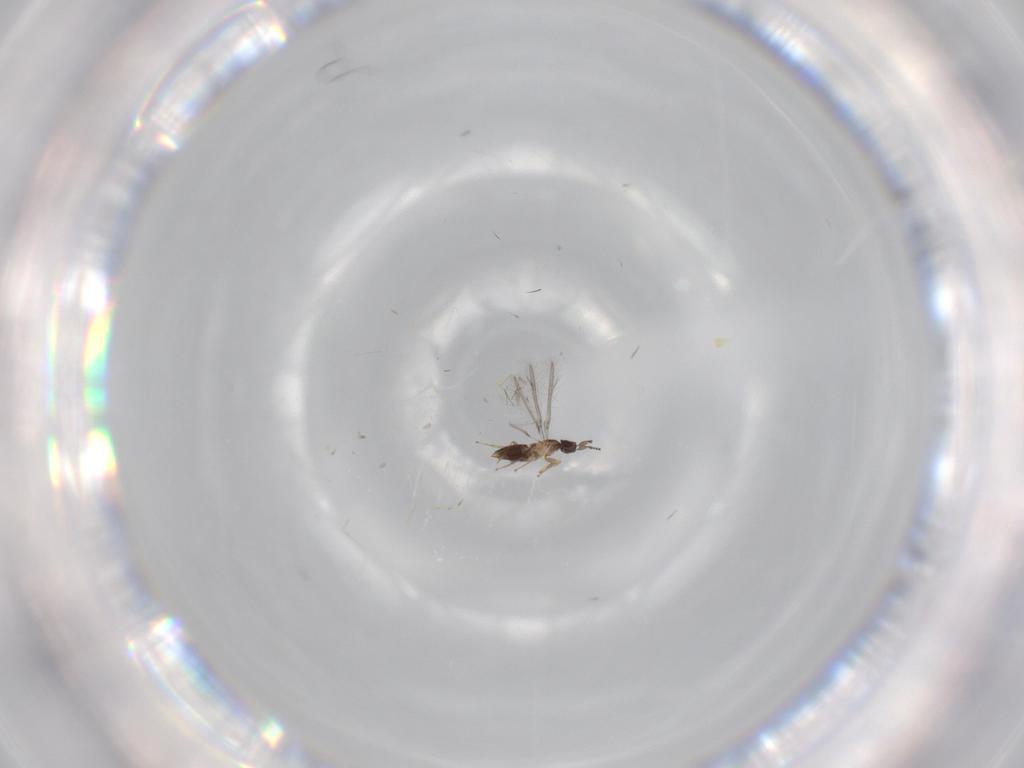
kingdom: Animalia
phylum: Arthropoda
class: Insecta
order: Hymenoptera
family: Mymaridae
